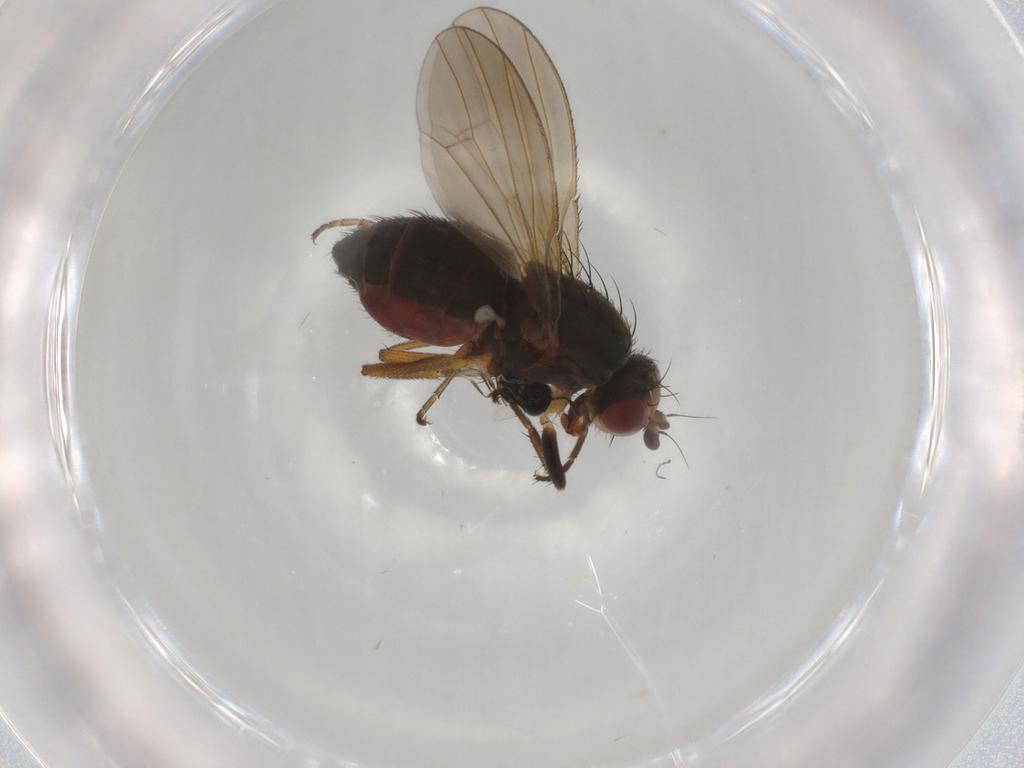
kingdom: Animalia
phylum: Arthropoda
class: Insecta
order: Diptera
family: Heleomyzidae
